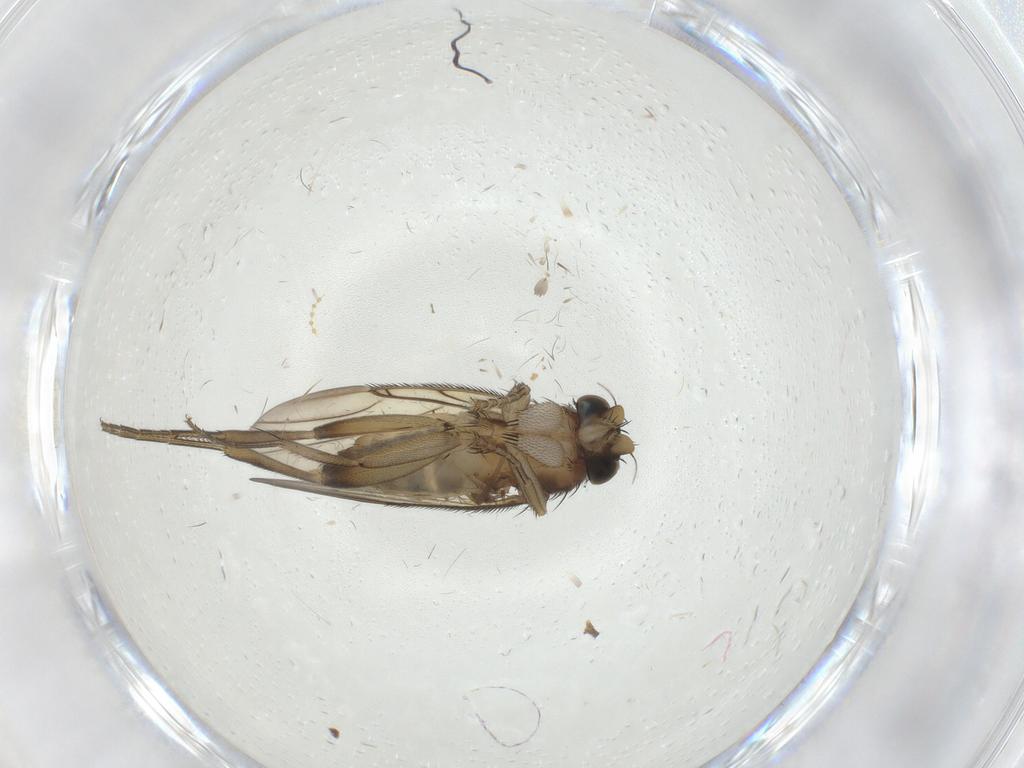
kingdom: Animalia
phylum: Arthropoda
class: Insecta
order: Diptera
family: Phoridae
